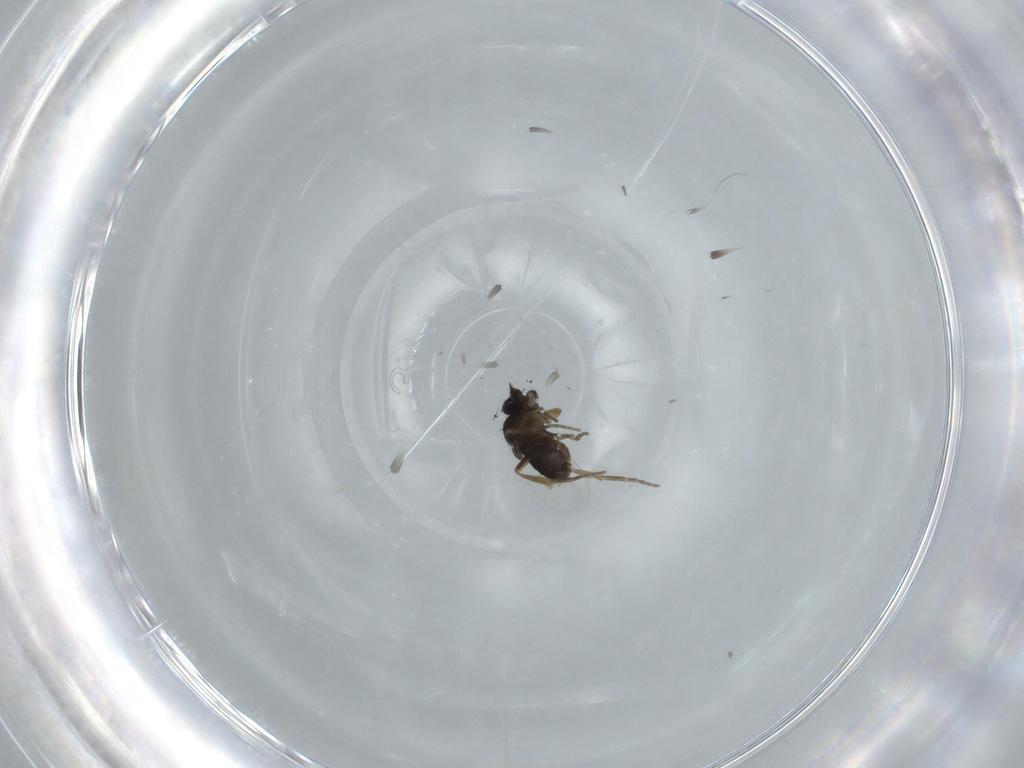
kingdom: Animalia
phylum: Arthropoda
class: Insecta
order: Diptera
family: Phoridae
